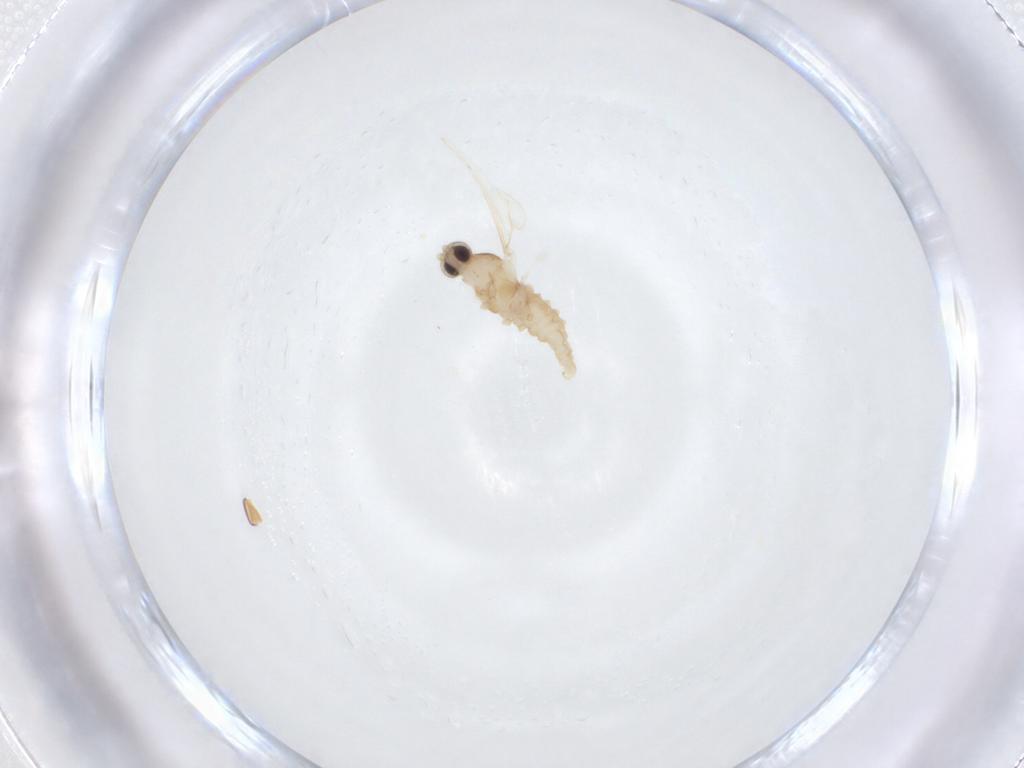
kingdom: Animalia
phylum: Arthropoda
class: Insecta
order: Diptera
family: Cecidomyiidae
